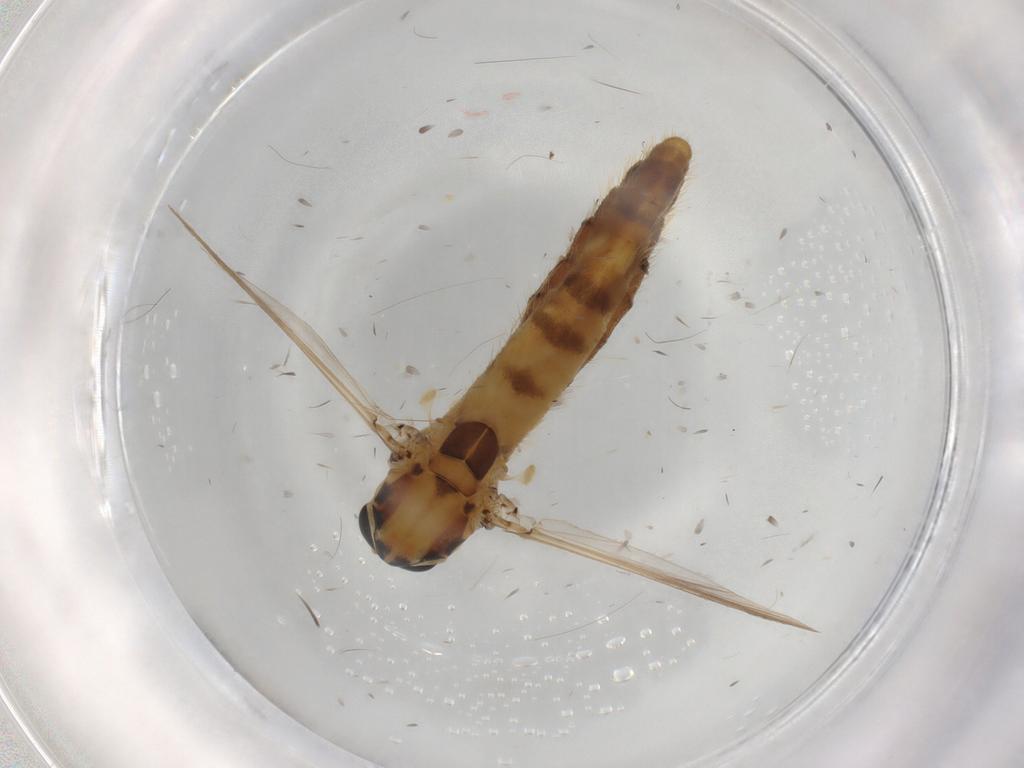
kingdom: Animalia
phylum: Arthropoda
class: Insecta
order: Diptera
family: Chironomidae
